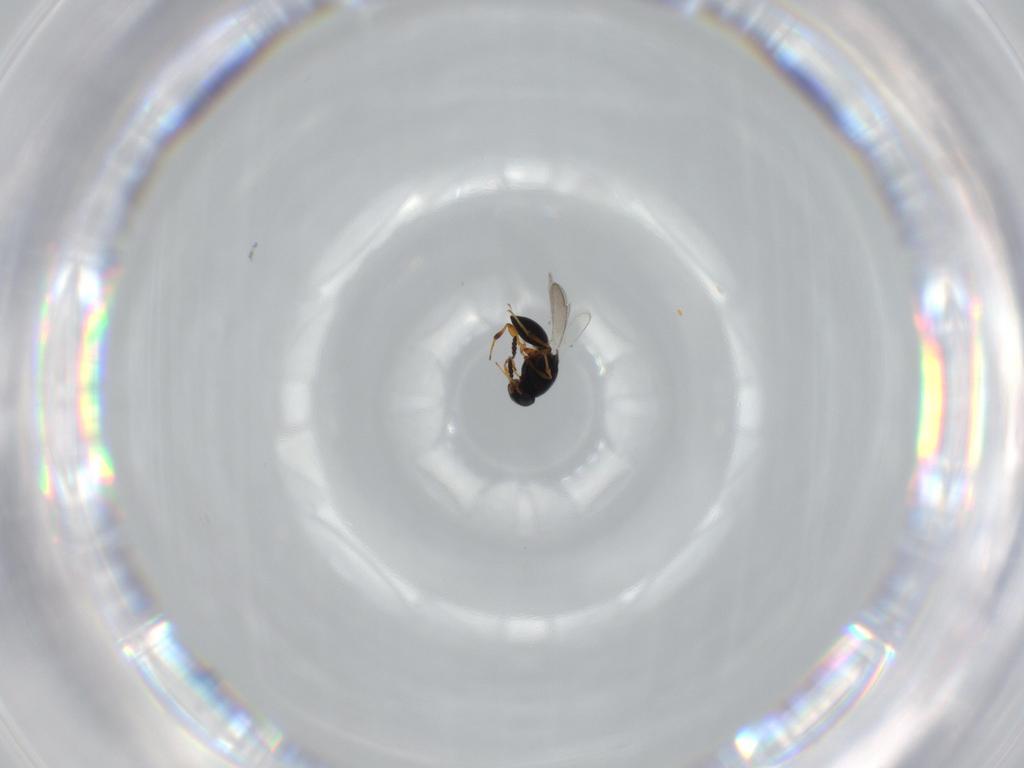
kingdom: Animalia
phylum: Arthropoda
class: Insecta
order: Hymenoptera
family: Platygastridae
